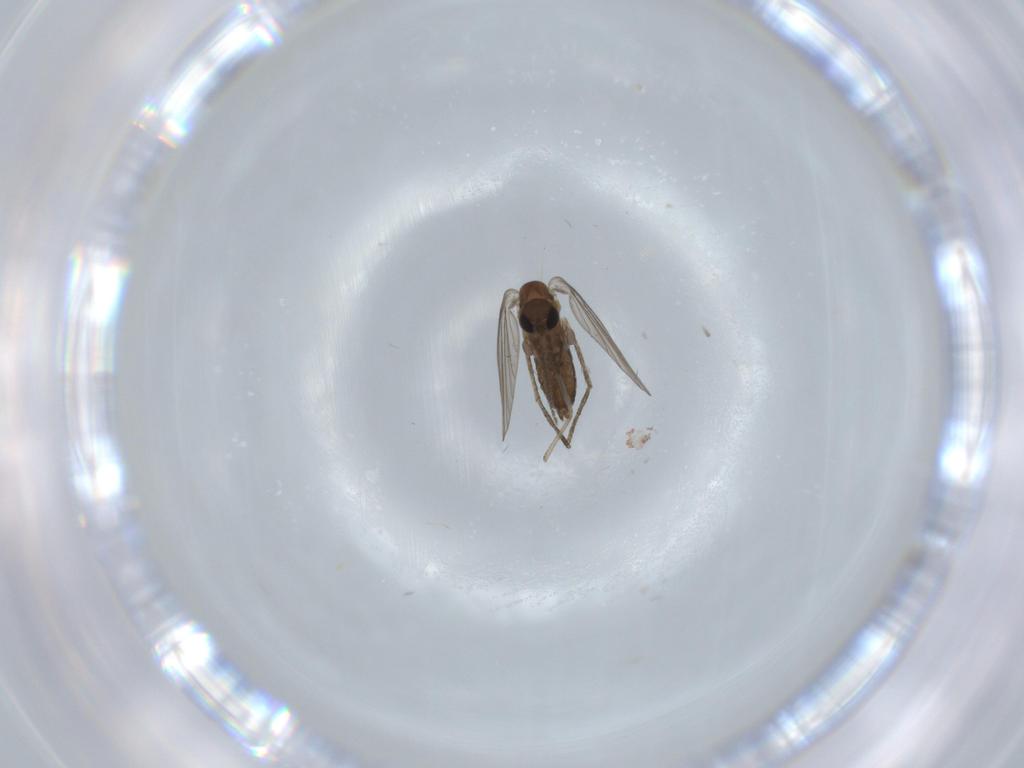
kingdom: Animalia
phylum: Arthropoda
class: Insecta
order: Diptera
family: Psychodidae
